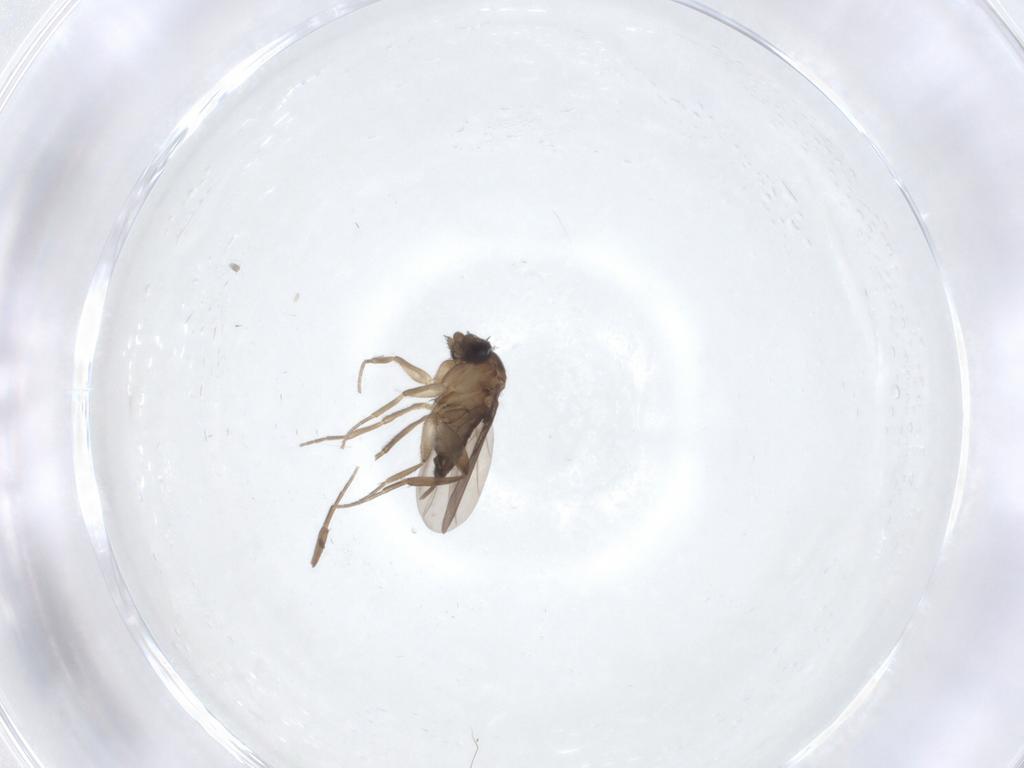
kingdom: Animalia
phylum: Arthropoda
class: Insecta
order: Diptera
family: Phoridae
